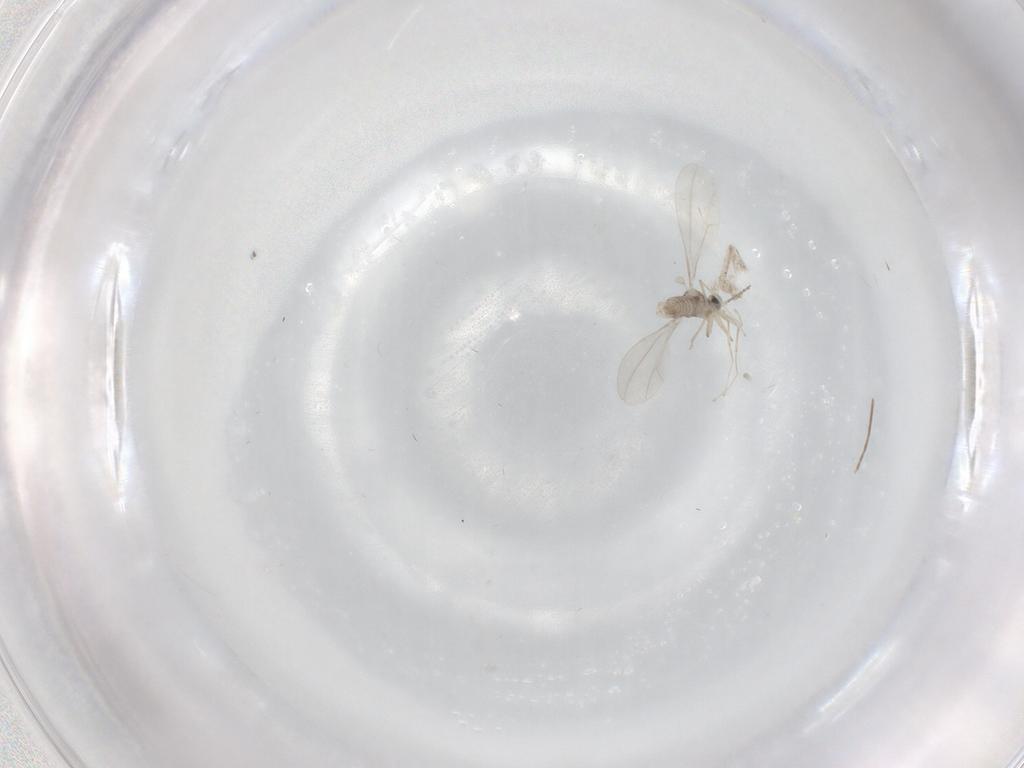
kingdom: Animalia
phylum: Arthropoda
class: Insecta
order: Diptera
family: Cecidomyiidae
